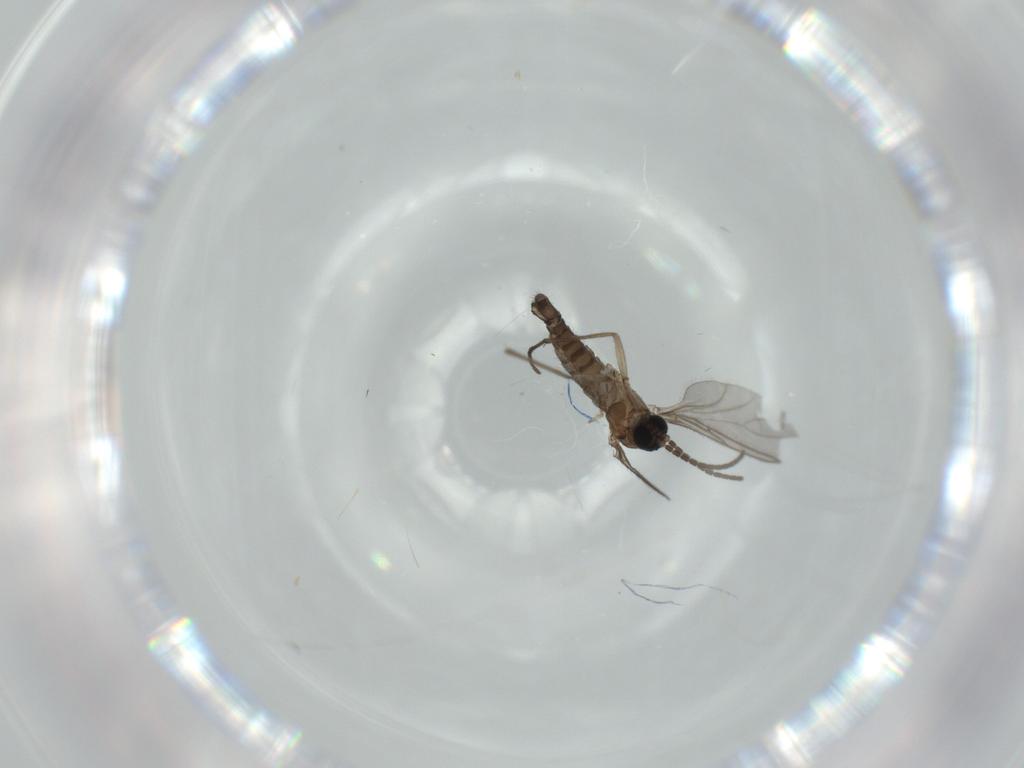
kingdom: Animalia
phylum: Arthropoda
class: Insecta
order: Diptera
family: Sciaridae
